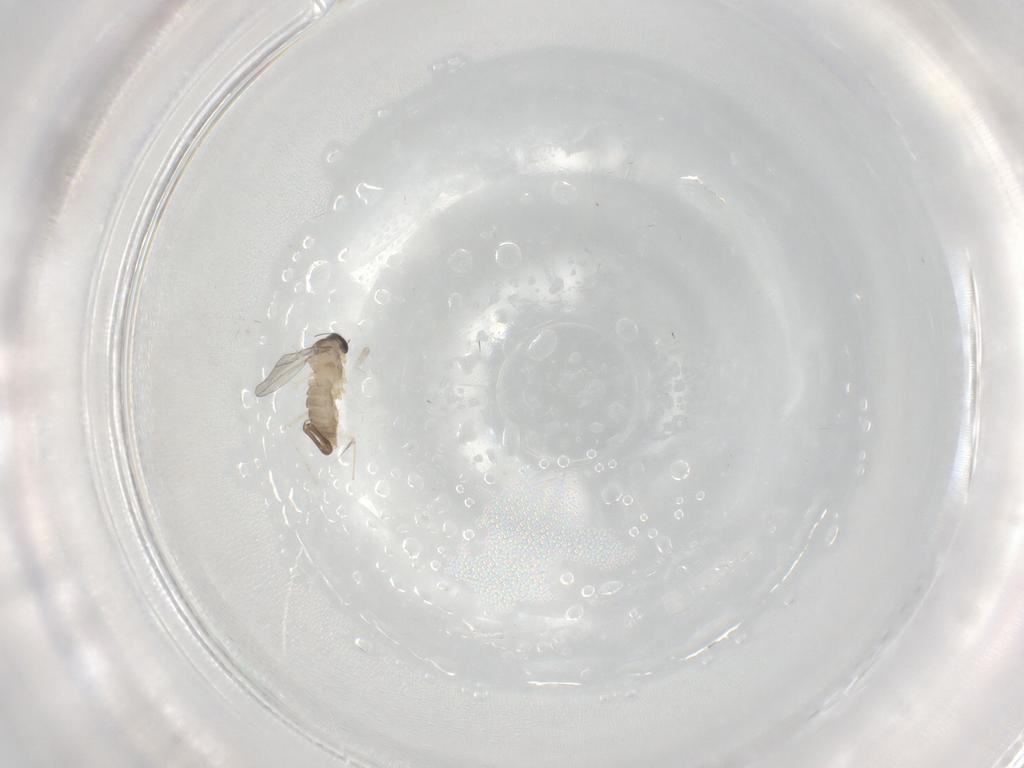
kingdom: Animalia
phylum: Arthropoda
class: Insecta
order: Diptera
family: Cecidomyiidae
